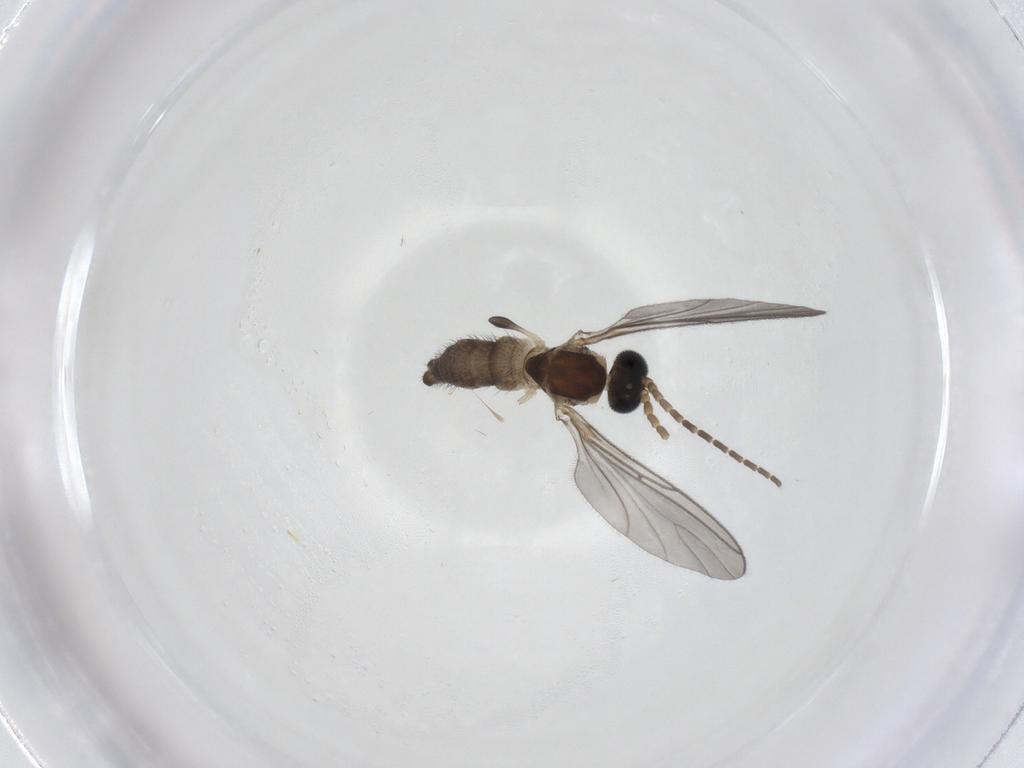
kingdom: Animalia
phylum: Arthropoda
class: Insecta
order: Diptera
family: Sciaridae
